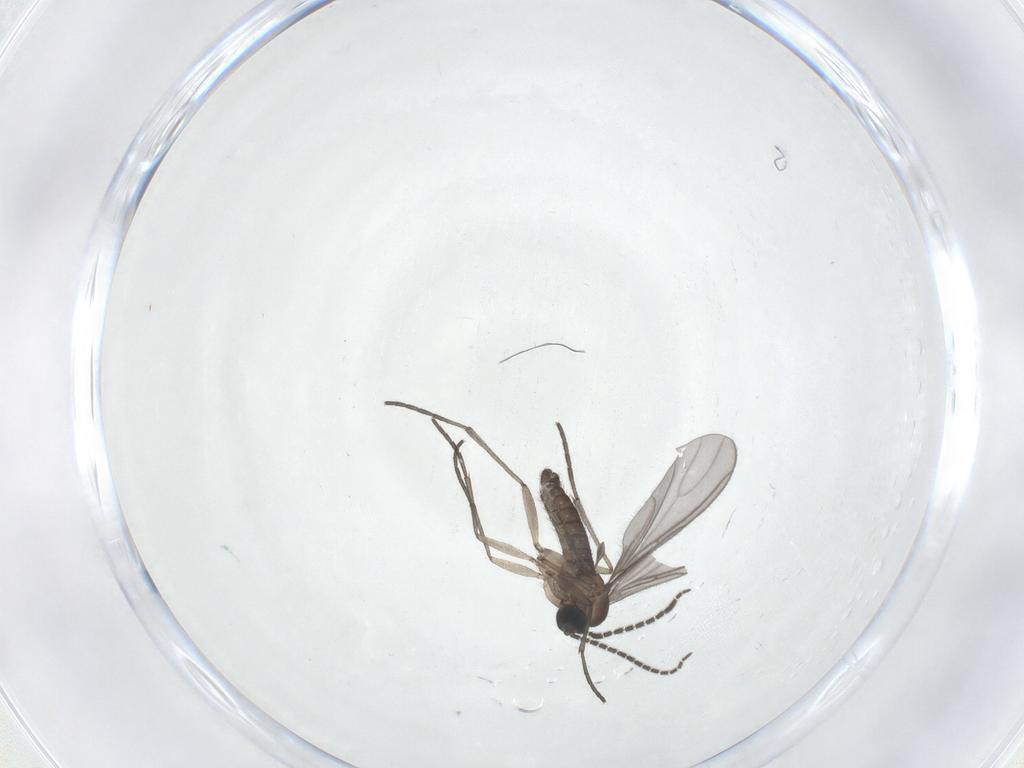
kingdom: Animalia
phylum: Arthropoda
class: Insecta
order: Diptera
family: Sciaridae
